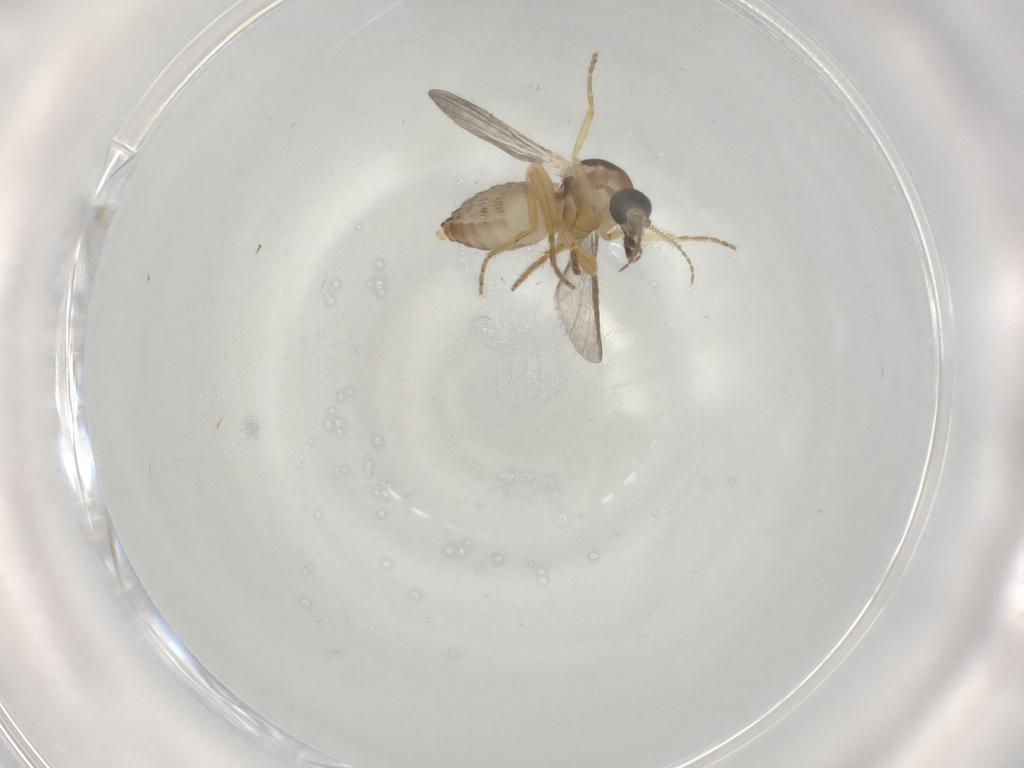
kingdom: Animalia
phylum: Arthropoda
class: Insecta
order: Diptera
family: Ceratopogonidae
